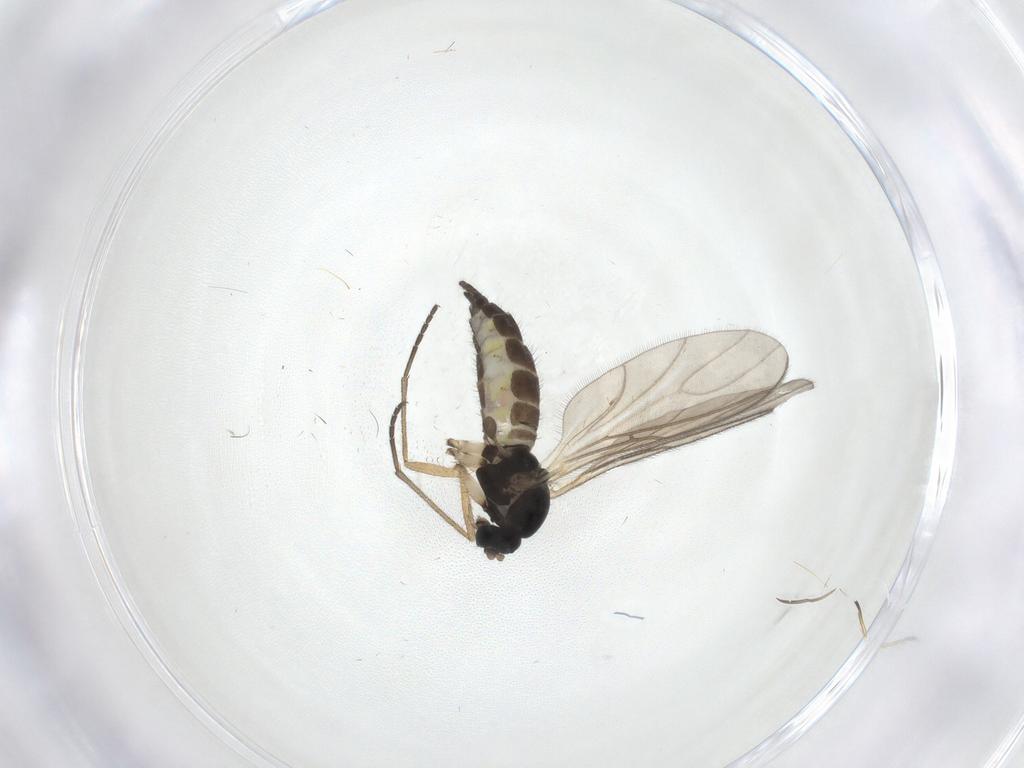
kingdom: Animalia
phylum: Arthropoda
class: Insecta
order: Diptera
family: Sciaridae
